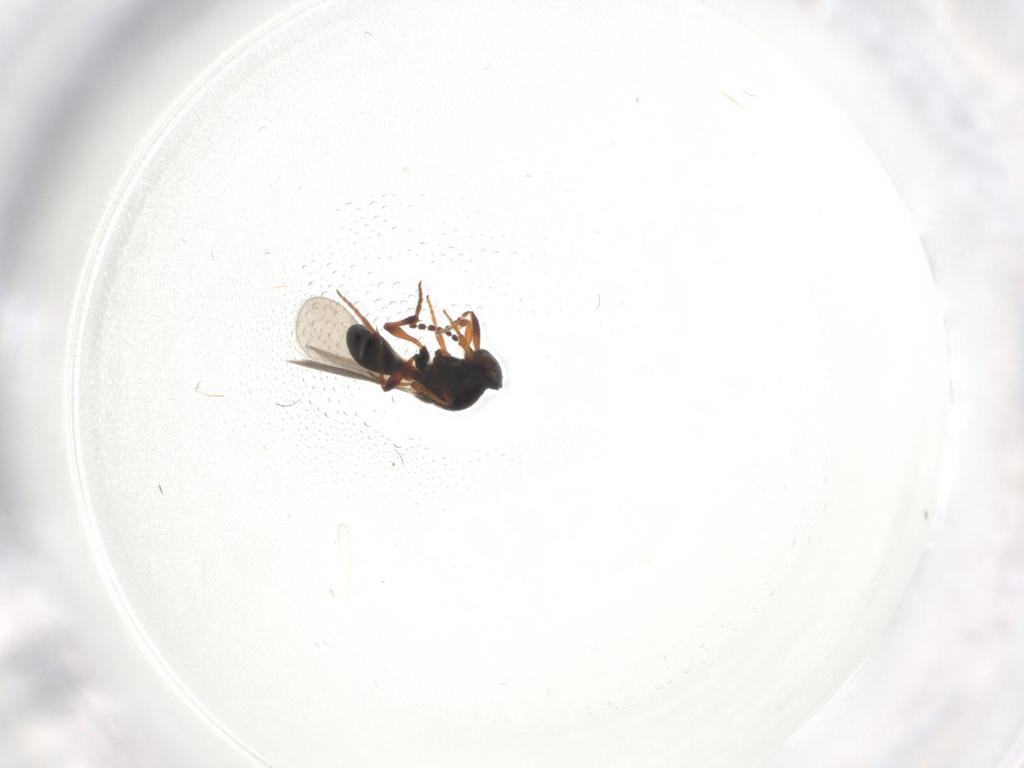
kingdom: Animalia
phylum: Arthropoda
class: Insecta
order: Hymenoptera
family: Platygastridae
